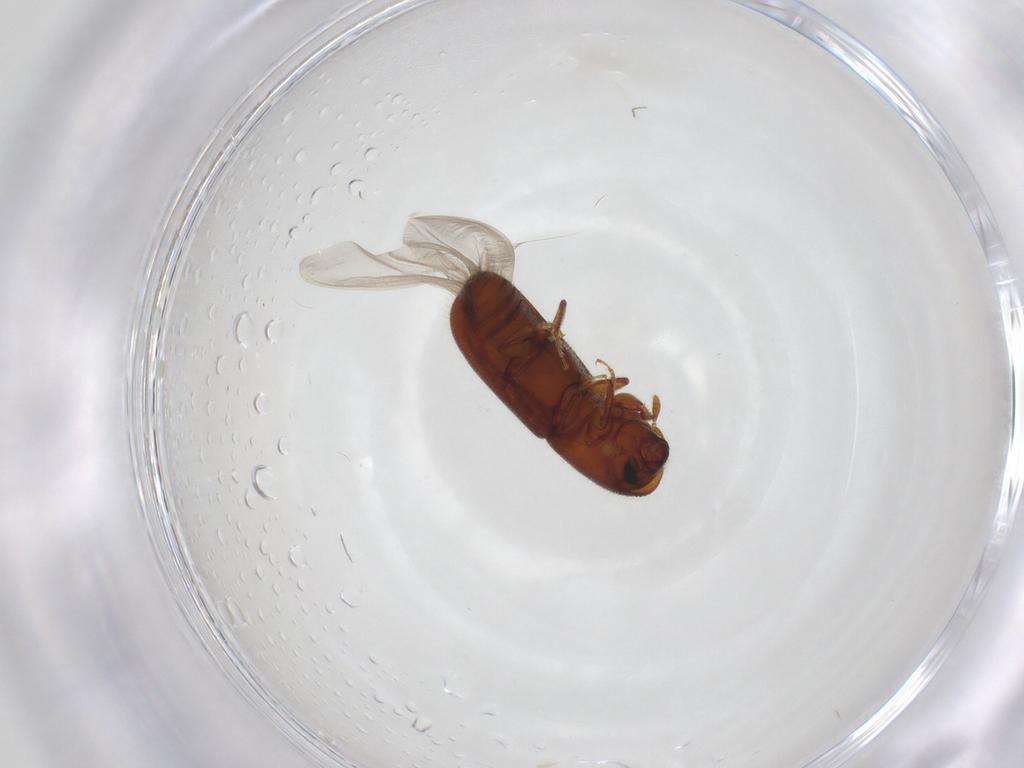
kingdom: Animalia
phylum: Arthropoda
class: Insecta
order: Coleoptera
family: Curculionidae
